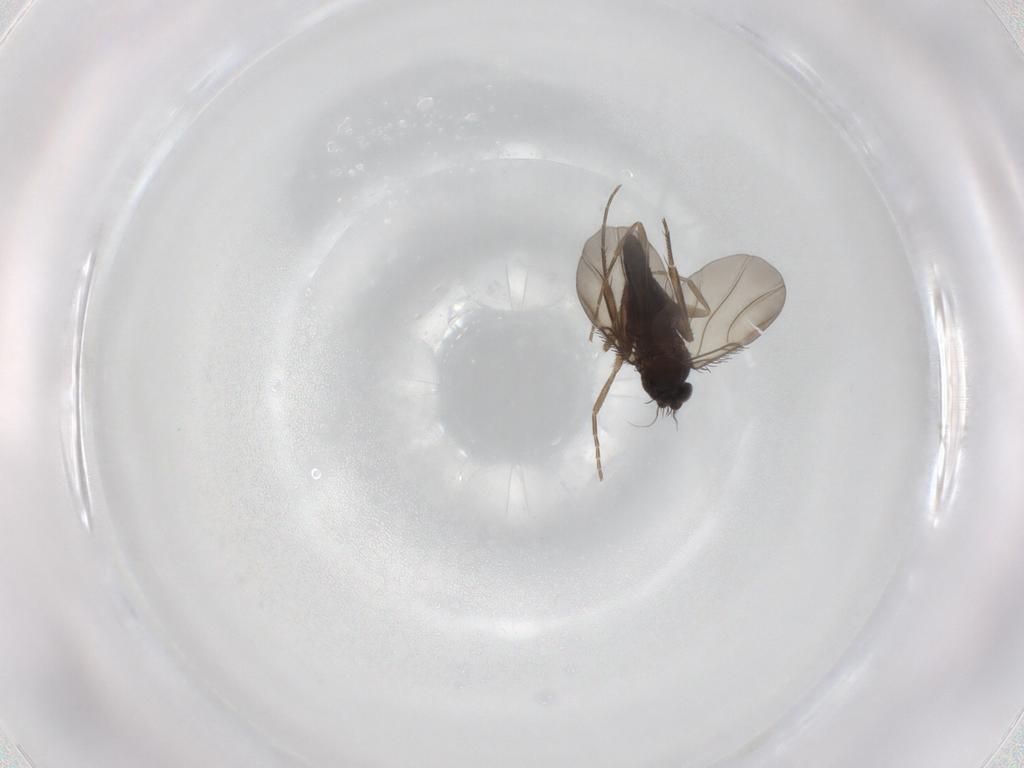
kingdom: Animalia
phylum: Arthropoda
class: Insecta
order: Diptera
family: Phoridae
